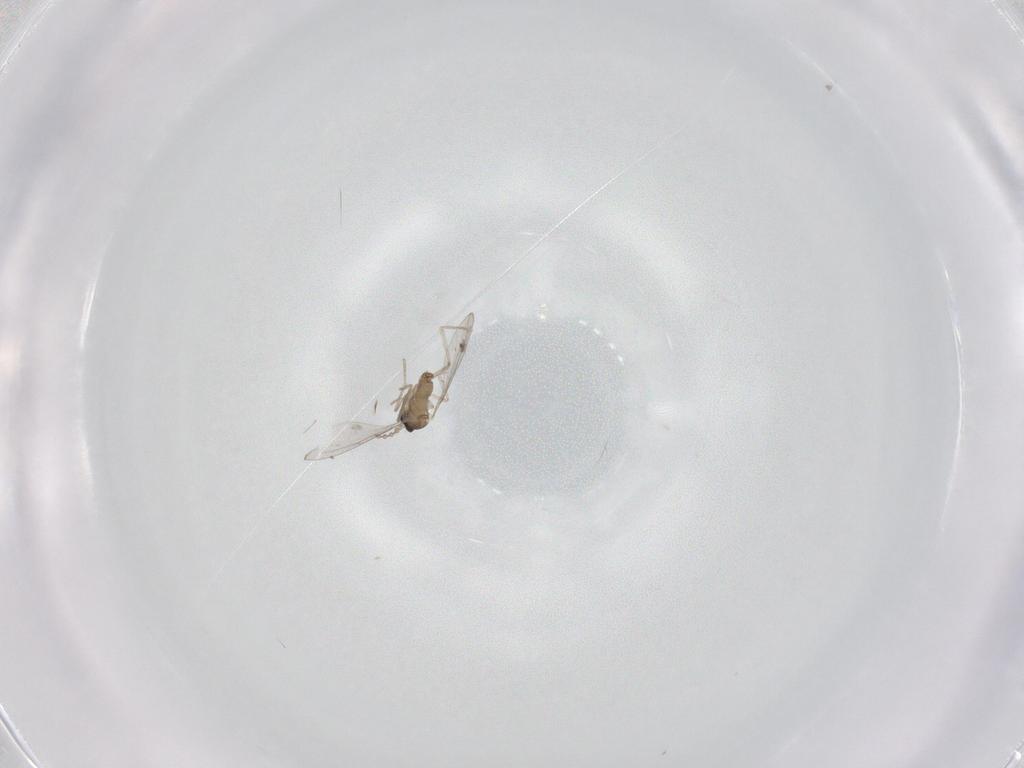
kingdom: Animalia
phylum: Arthropoda
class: Insecta
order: Diptera
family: Cecidomyiidae
